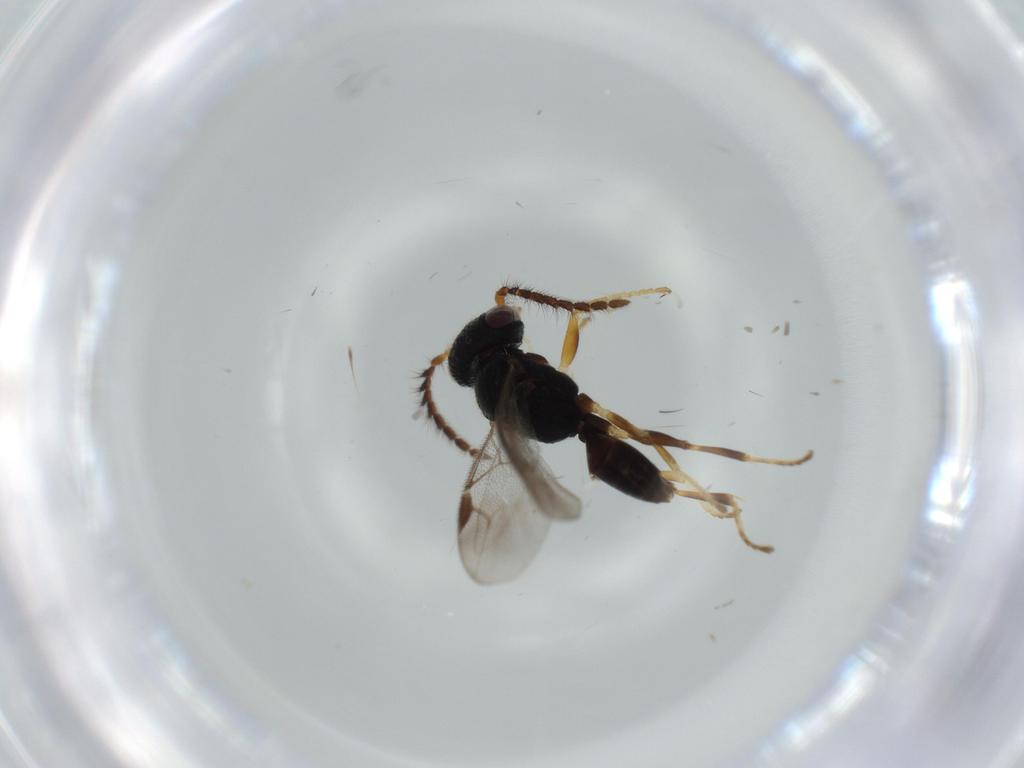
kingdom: Animalia
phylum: Arthropoda
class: Insecta
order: Hymenoptera
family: Dryinidae
